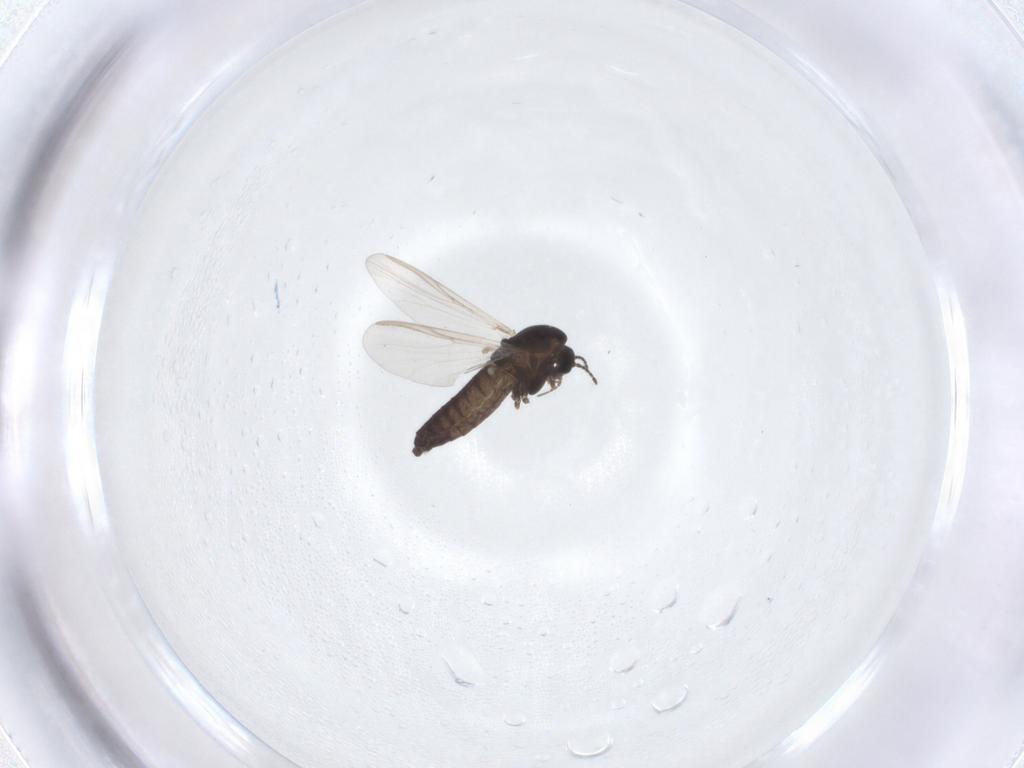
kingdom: Animalia
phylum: Arthropoda
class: Insecta
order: Diptera
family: Chironomidae
